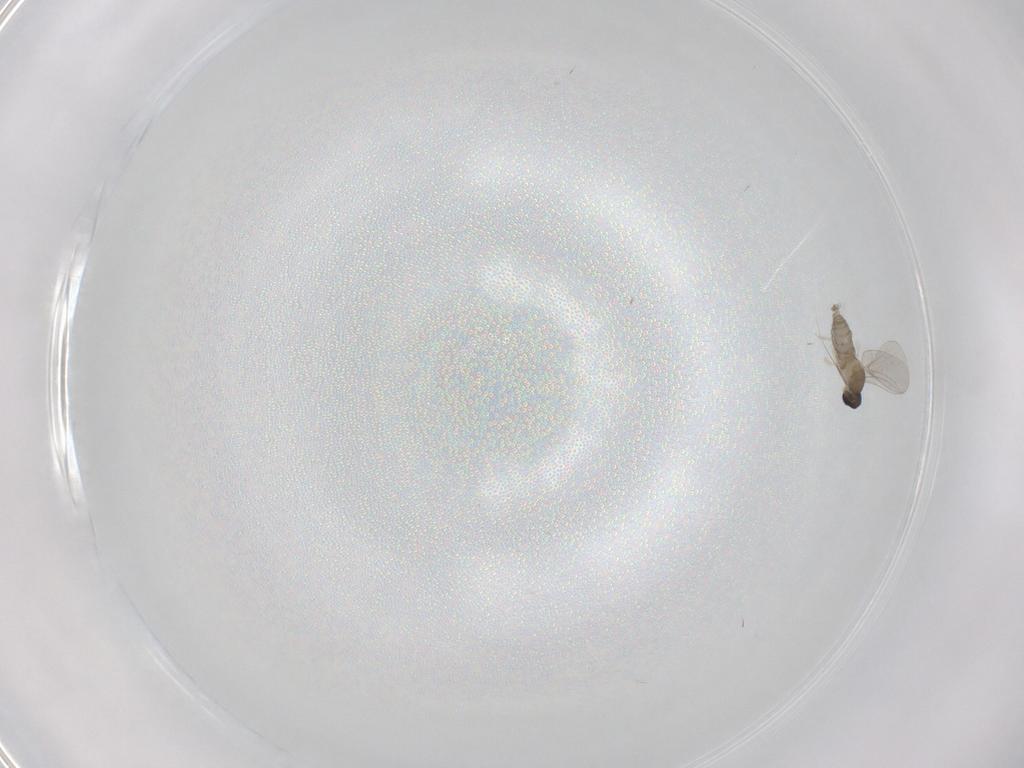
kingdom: Animalia
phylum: Arthropoda
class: Insecta
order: Diptera
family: Cecidomyiidae
